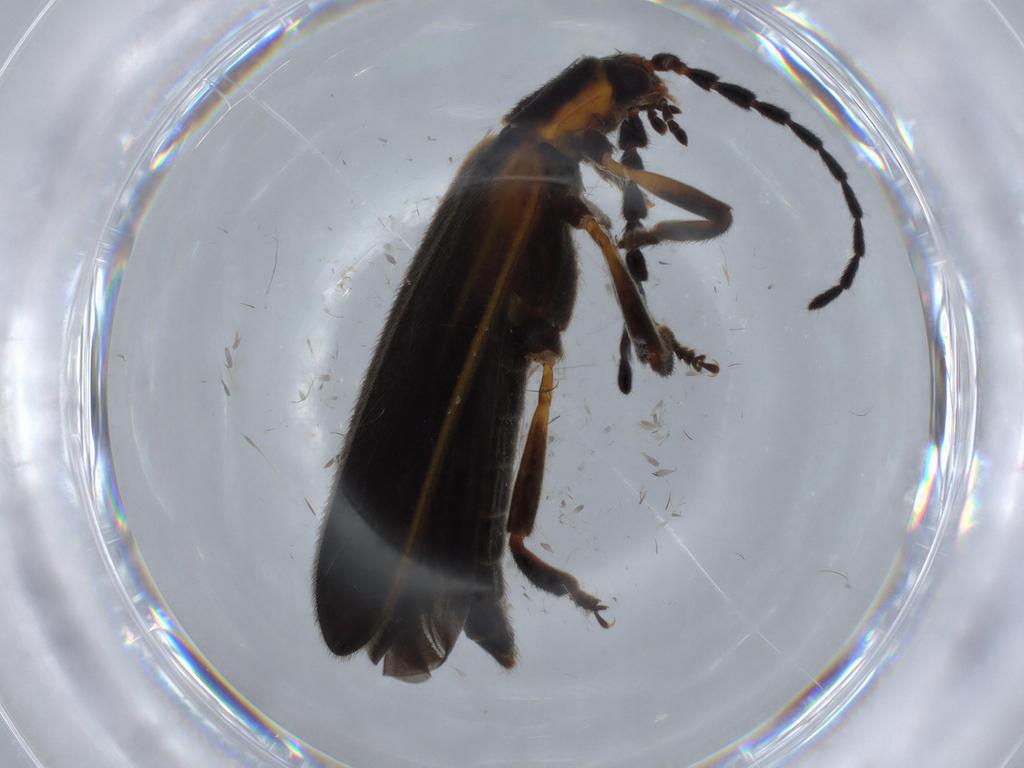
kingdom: Animalia
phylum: Arthropoda
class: Insecta
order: Coleoptera
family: Lycidae
